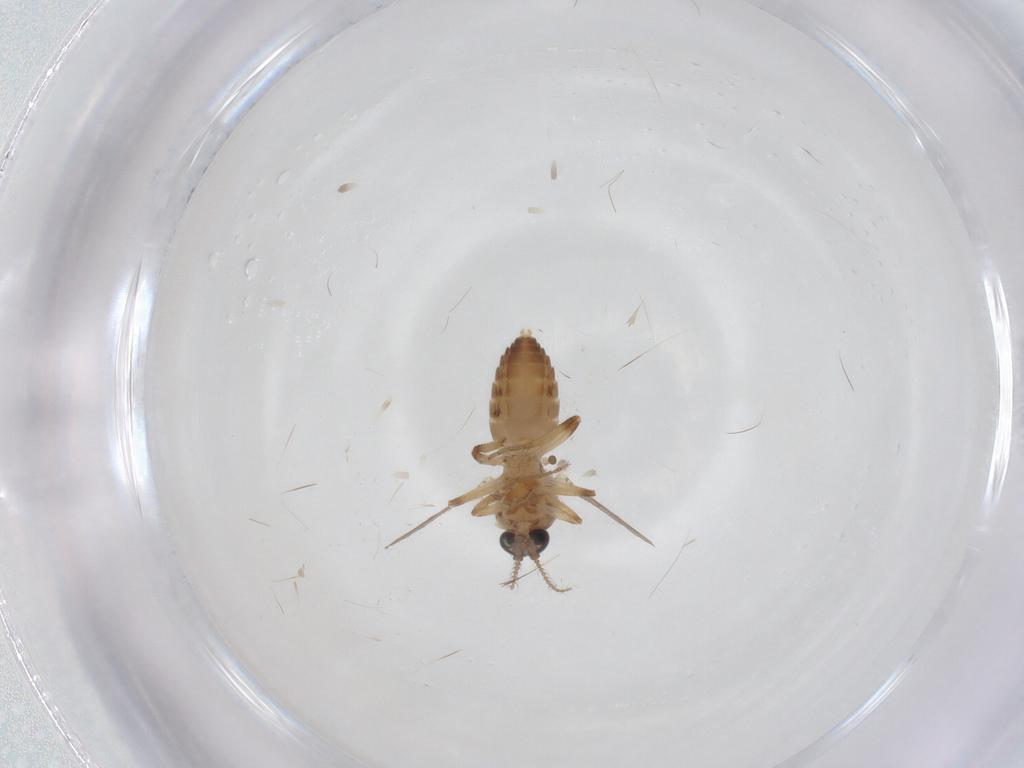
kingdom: Animalia
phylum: Arthropoda
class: Insecta
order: Diptera
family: Ceratopogonidae
